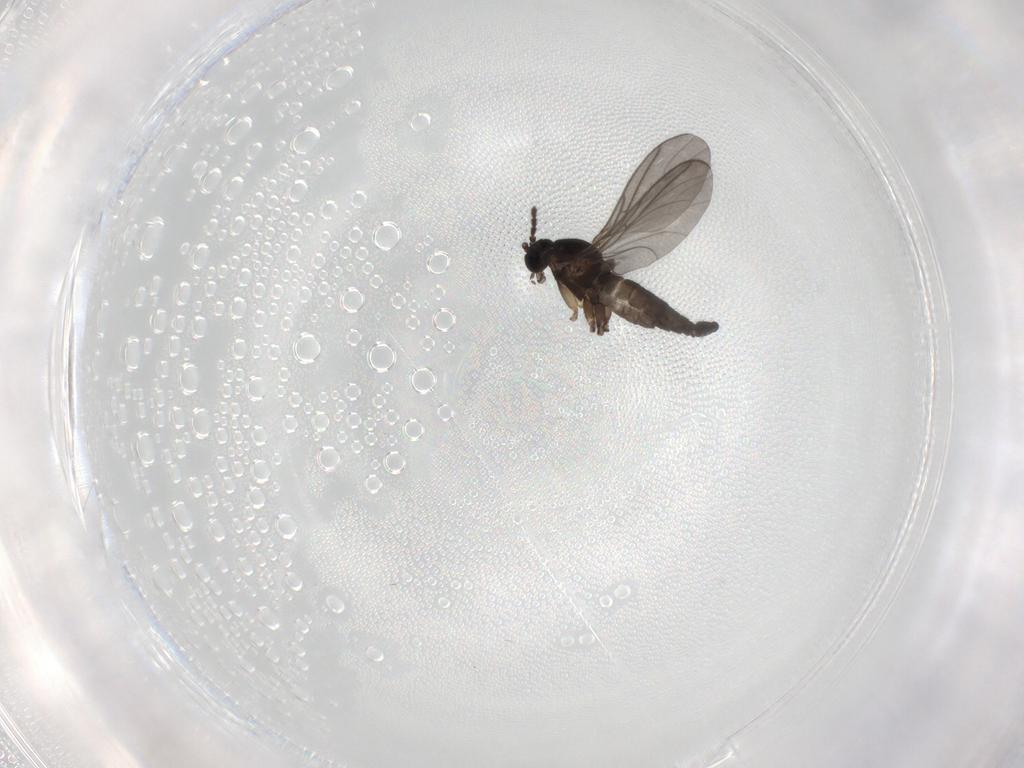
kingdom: Animalia
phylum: Arthropoda
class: Insecta
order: Diptera
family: Sciaridae
